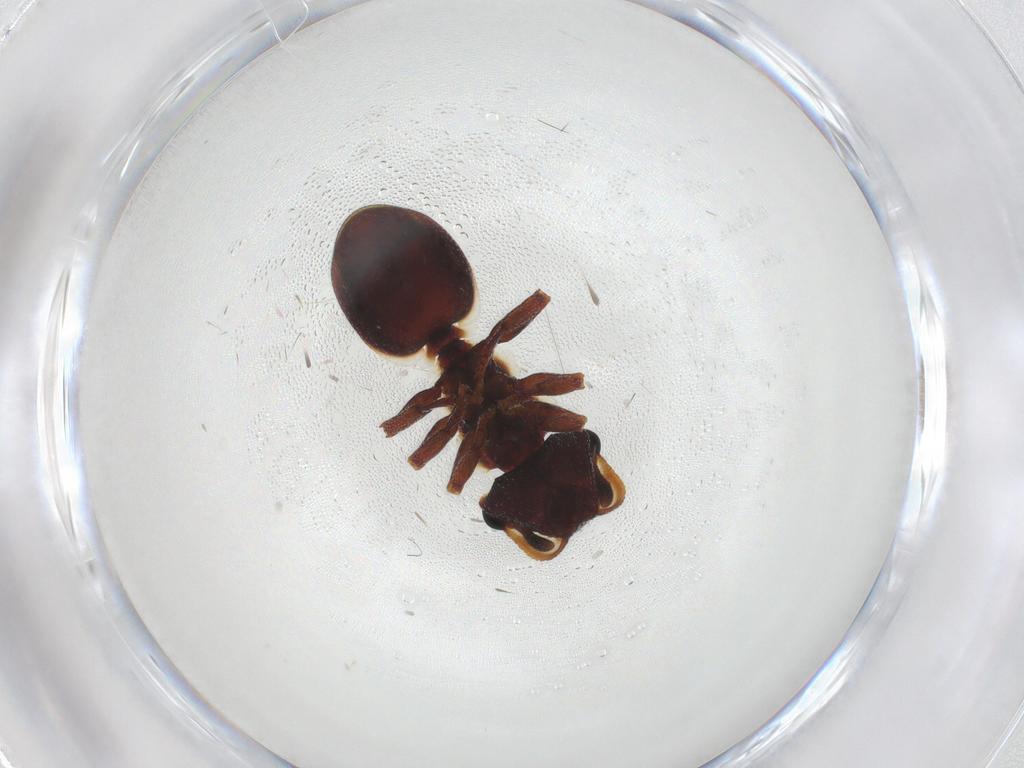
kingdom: Animalia
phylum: Arthropoda
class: Insecta
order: Hymenoptera
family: Formicidae
